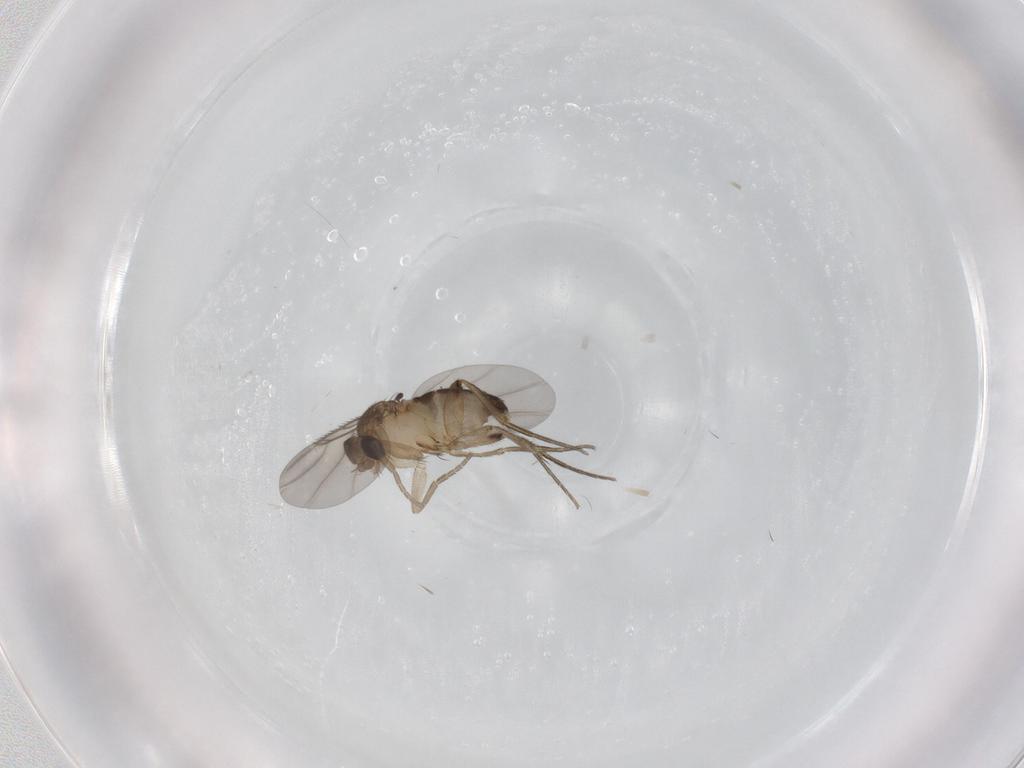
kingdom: Animalia
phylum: Arthropoda
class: Insecta
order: Diptera
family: Phoridae
